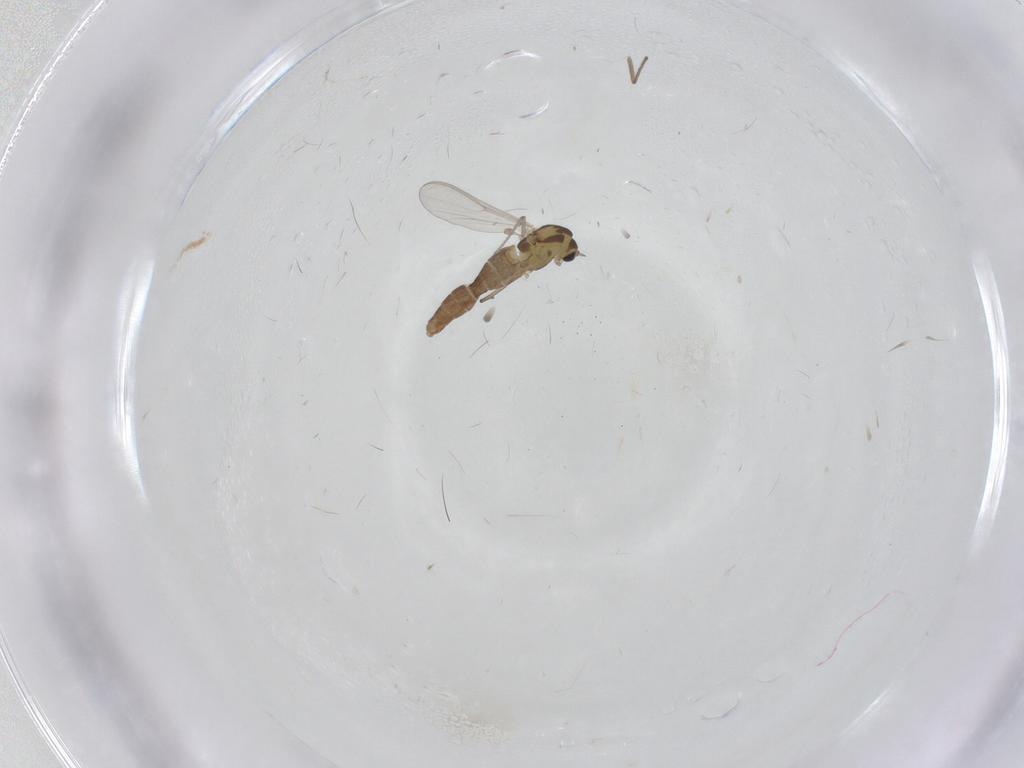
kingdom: Animalia
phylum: Arthropoda
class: Insecta
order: Diptera
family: Chironomidae
